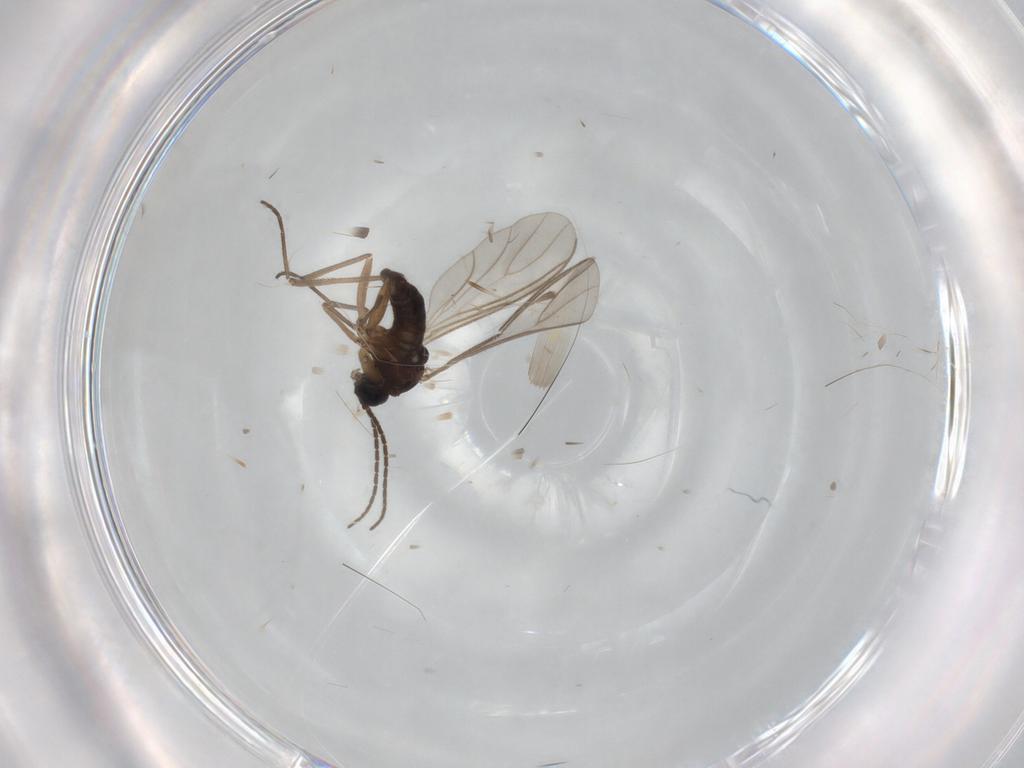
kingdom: Animalia
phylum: Arthropoda
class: Insecta
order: Diptera
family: Sciaridae
